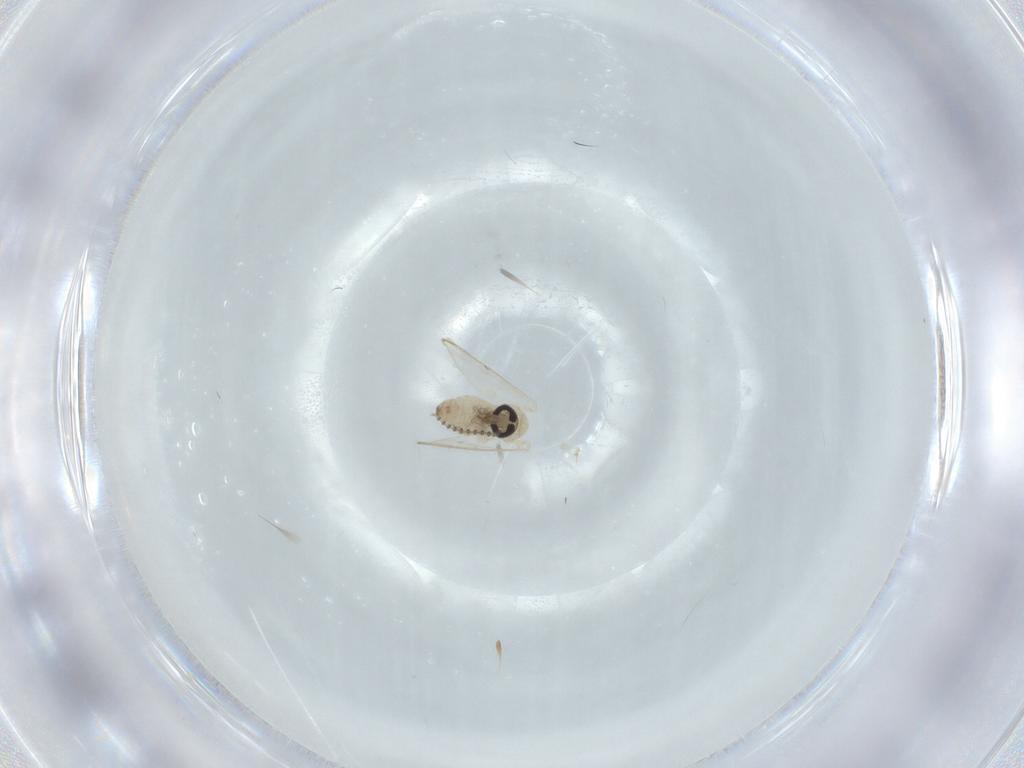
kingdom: Animalia
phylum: Arthropoda
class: Insecta
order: Diptera
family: Psychodidae
